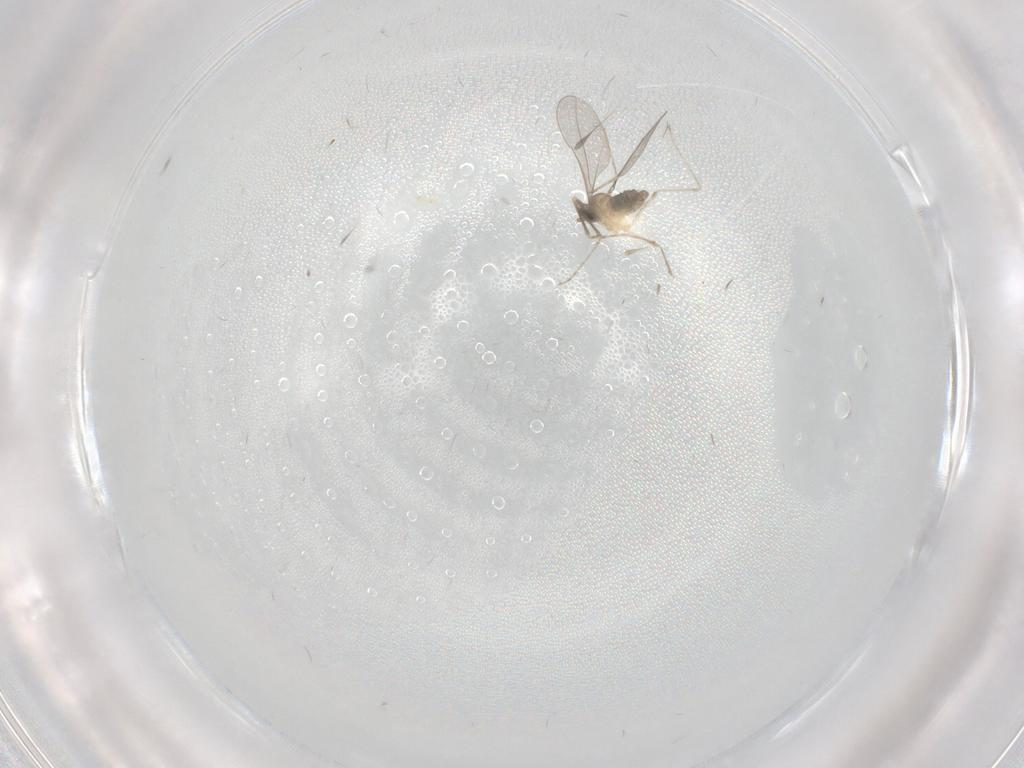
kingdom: Animalia
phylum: Arthropoda
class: Insecta
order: Diptera
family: Cecidomyiidae
